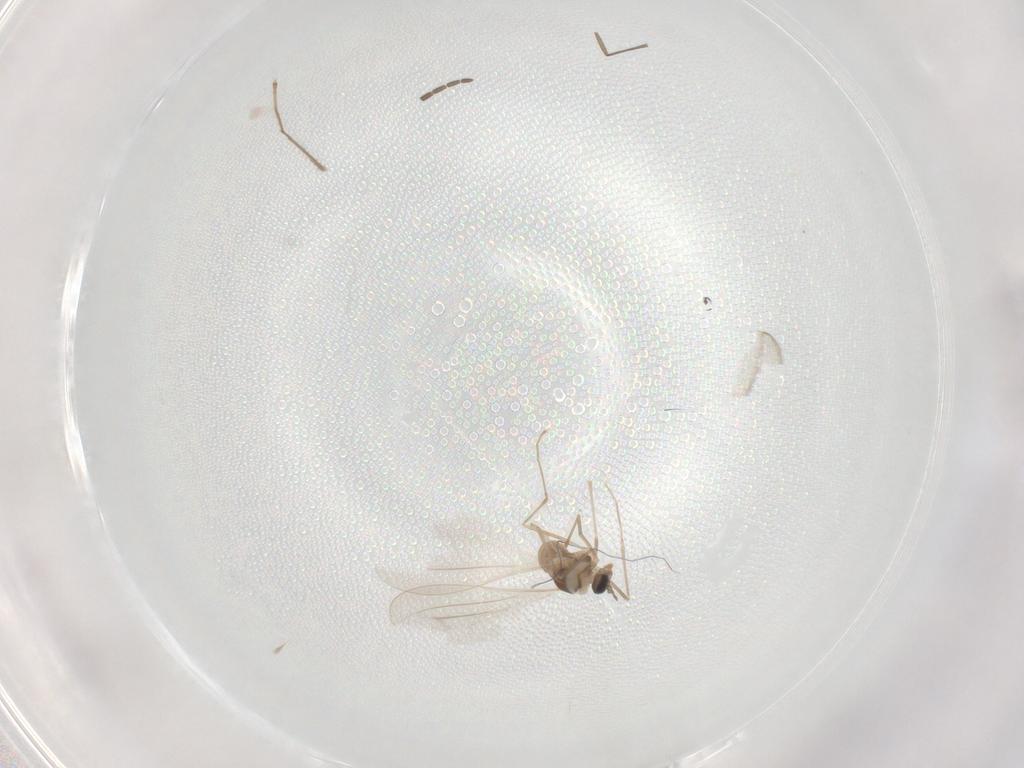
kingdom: Animalia
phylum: Arthropoda
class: Insecta
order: Diptera
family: Cecidomyiidae
